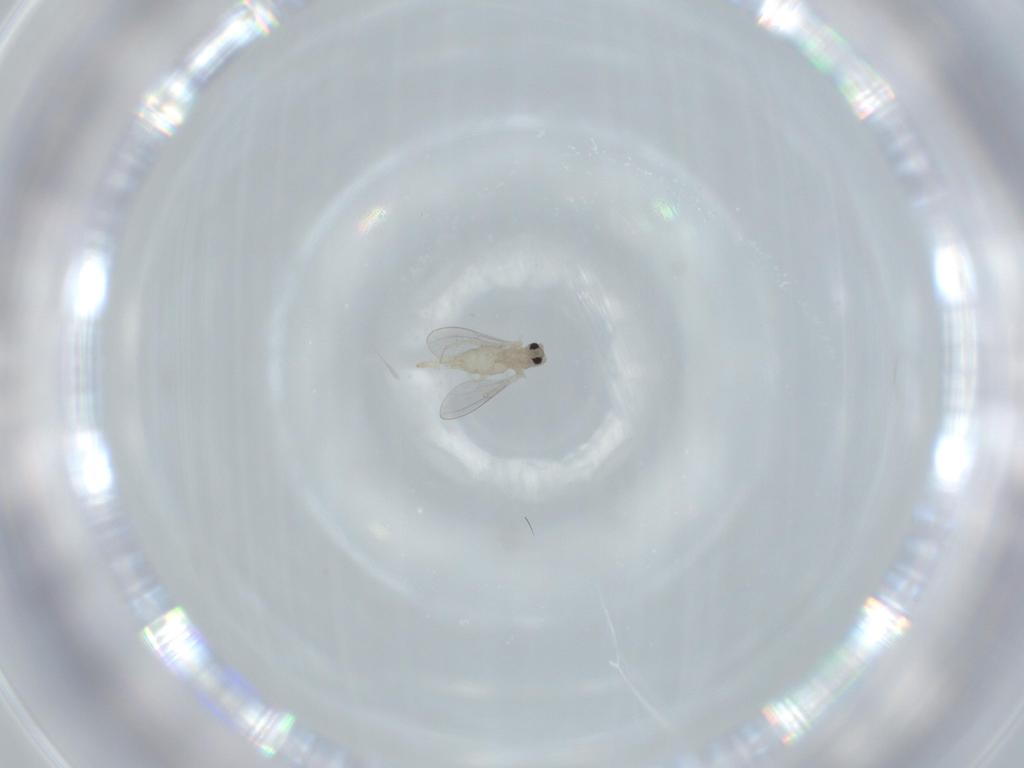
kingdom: Animalia
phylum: Arthropoda
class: Insecta
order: Diptera
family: Cecidomyiidae
